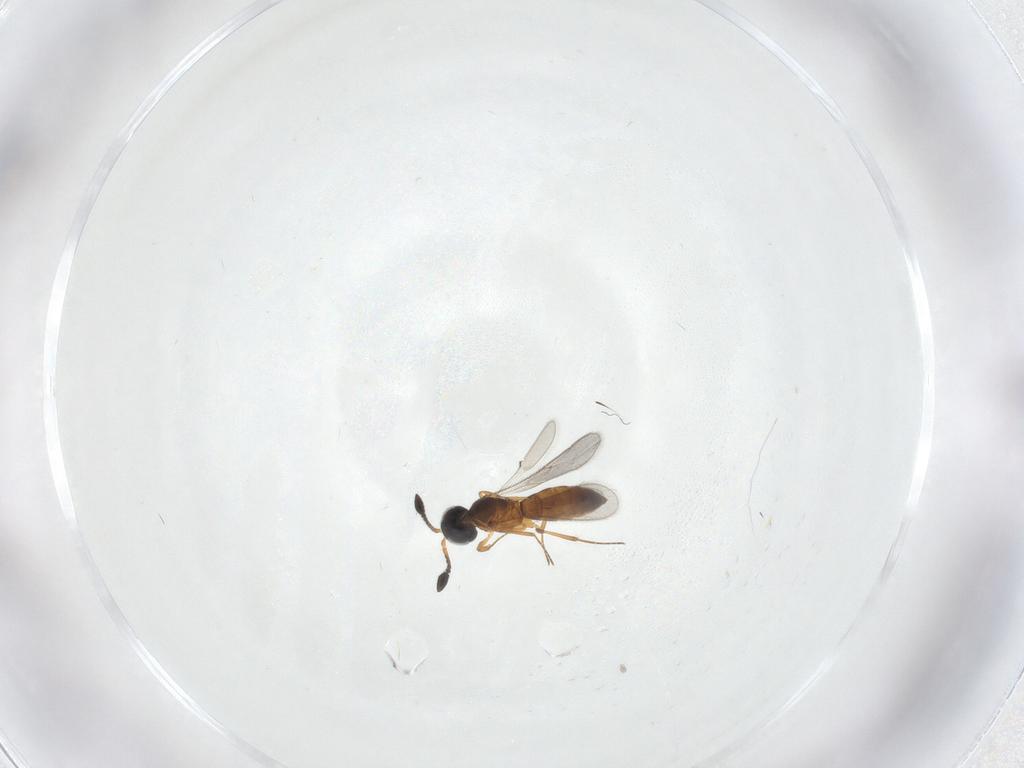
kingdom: Animalia
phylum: Arthropoda
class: Insecta
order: Hymenoptera
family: Scelionidae
